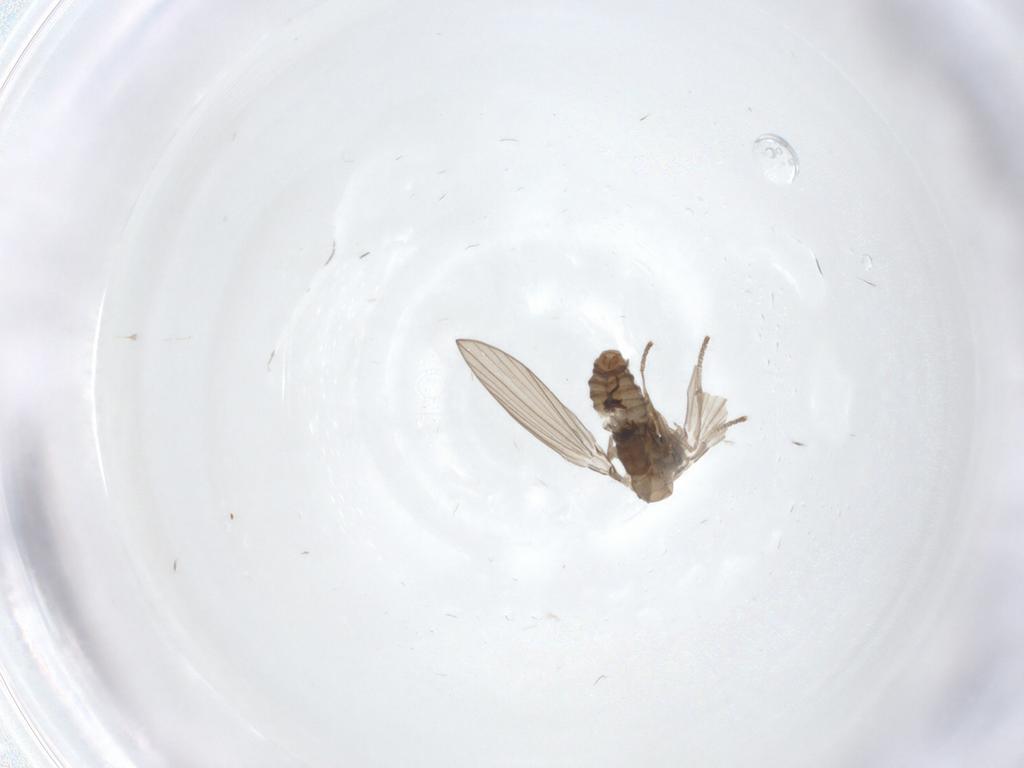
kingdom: Animalia
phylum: Arthropoda
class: Insecta
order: Diptera
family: Psychodidae
